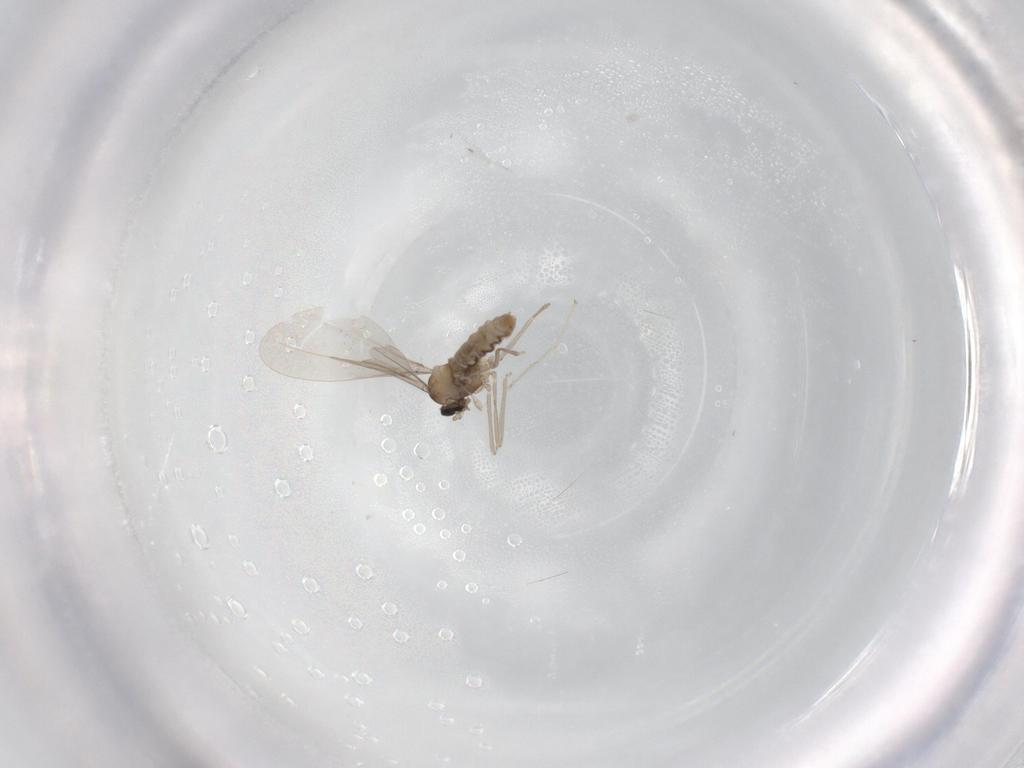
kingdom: Animalia
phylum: Arthropoda
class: Insecta
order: Diptera
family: Cecidomyiidae
